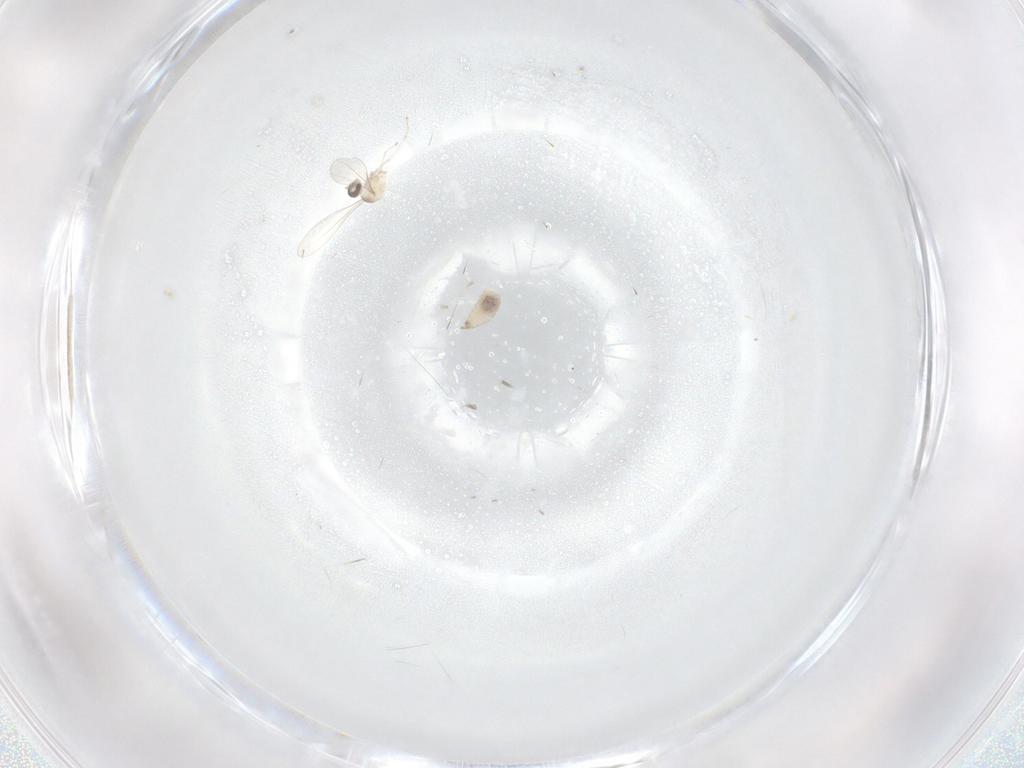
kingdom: Animalia
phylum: Arthropoda
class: Insecta
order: Diptera
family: Cecidomyiidae
